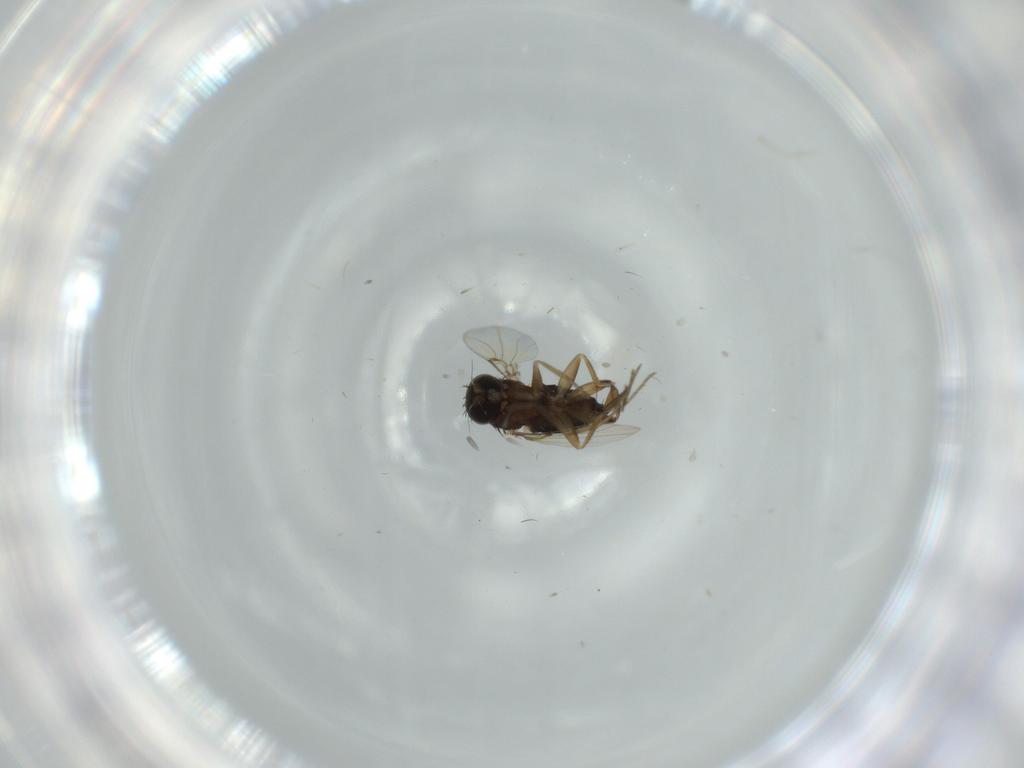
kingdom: Animalia
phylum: Arthropoda
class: Insecta
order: Diptera
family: Phoridae
